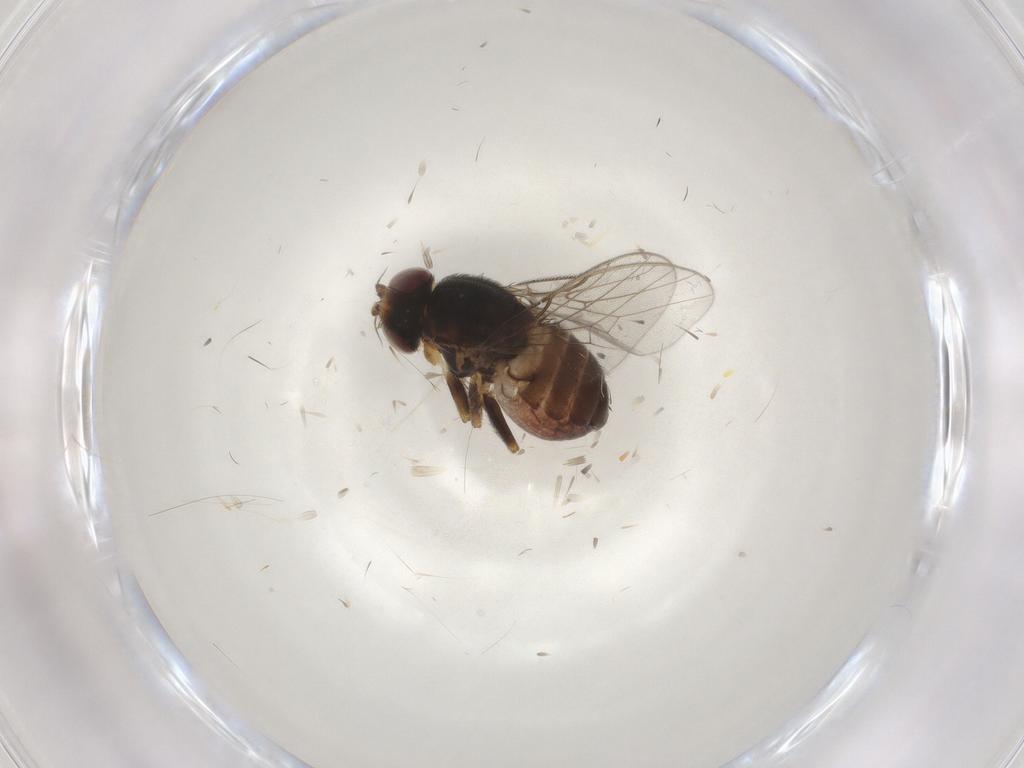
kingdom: Animalia
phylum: Arthropoda
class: Insecta
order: Diptera
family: Chloropidae
